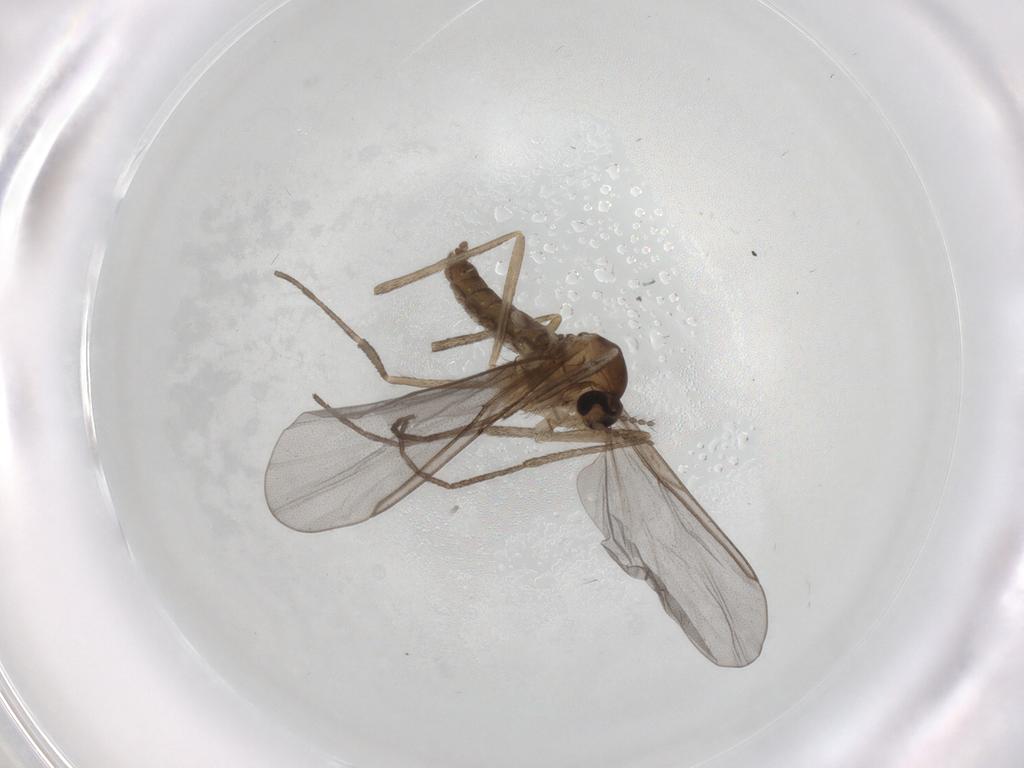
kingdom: Animalia
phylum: Arthropoda
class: Insecta
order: Diptera
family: Cecidomyiidae
